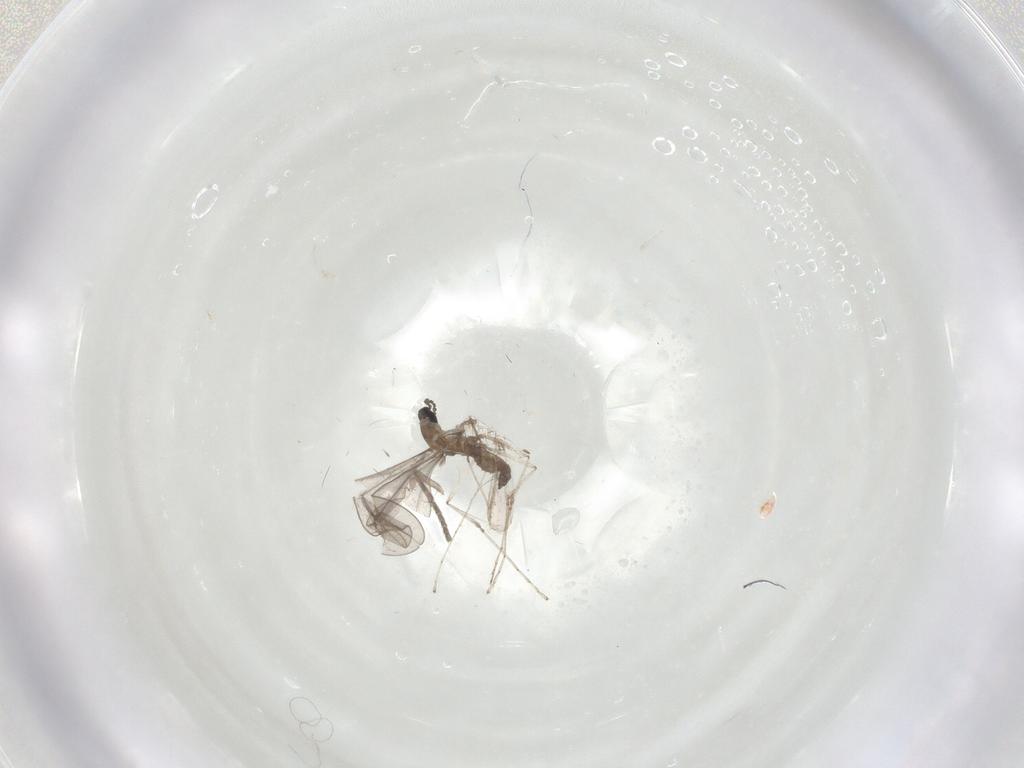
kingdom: Animalia
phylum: Arthropoda
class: Insecta
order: Diptera
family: Psychodidae
